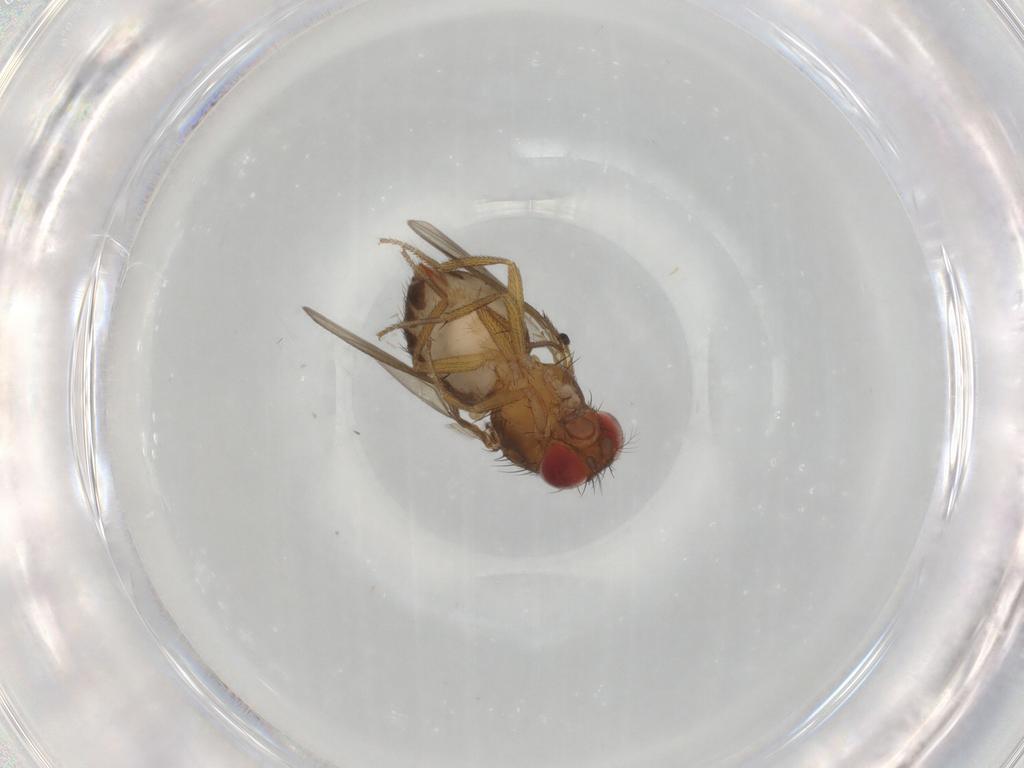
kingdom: Animalia
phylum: Arthropoda
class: Insecta
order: Diptera
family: Drosophilidae
